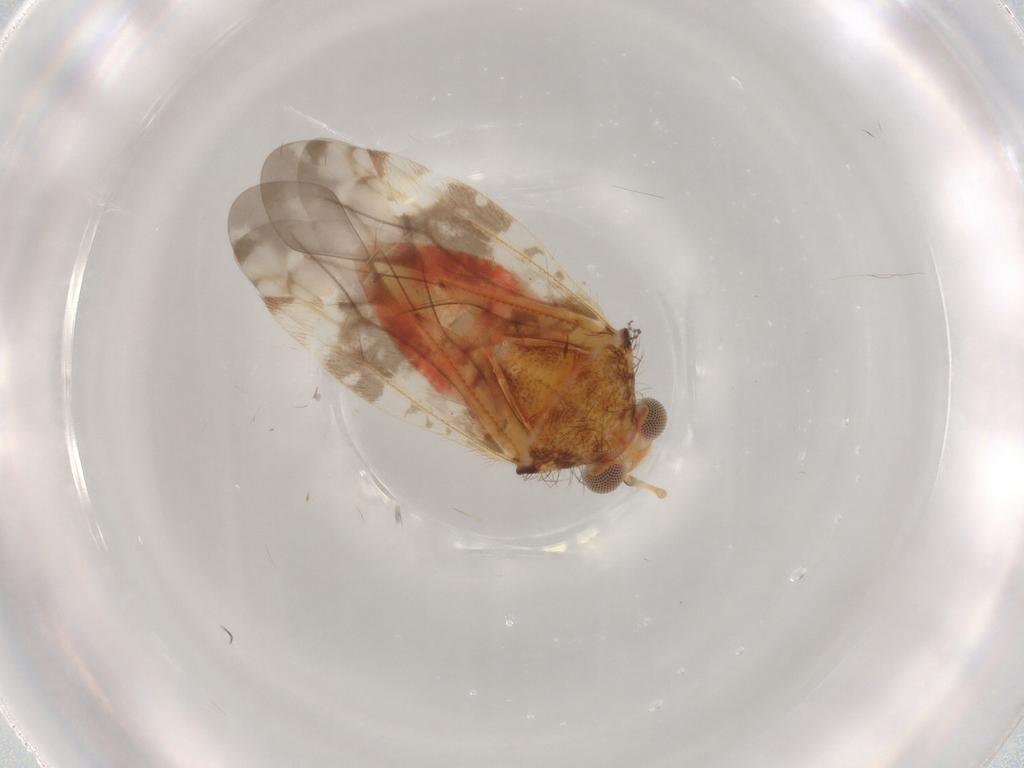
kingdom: Animalia
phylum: Arthropoda
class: Insecta
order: Hemiptera
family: Miridae
